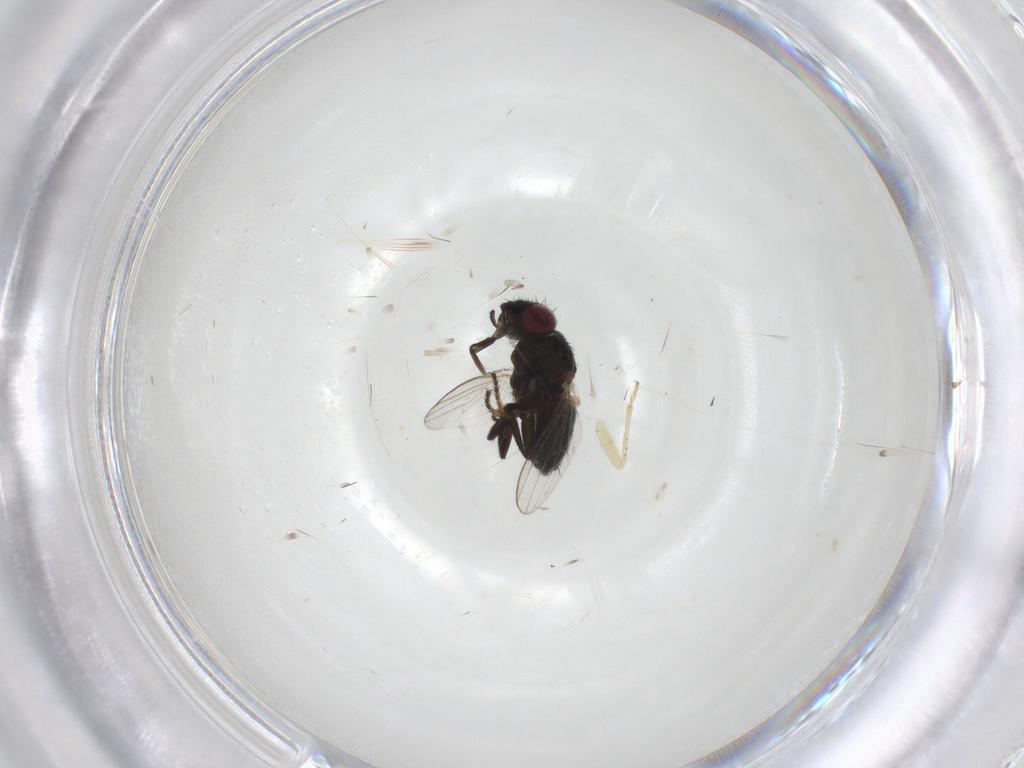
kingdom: Animalia
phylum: Arthropoda
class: Insecta
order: Diptera
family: Milichiidae
